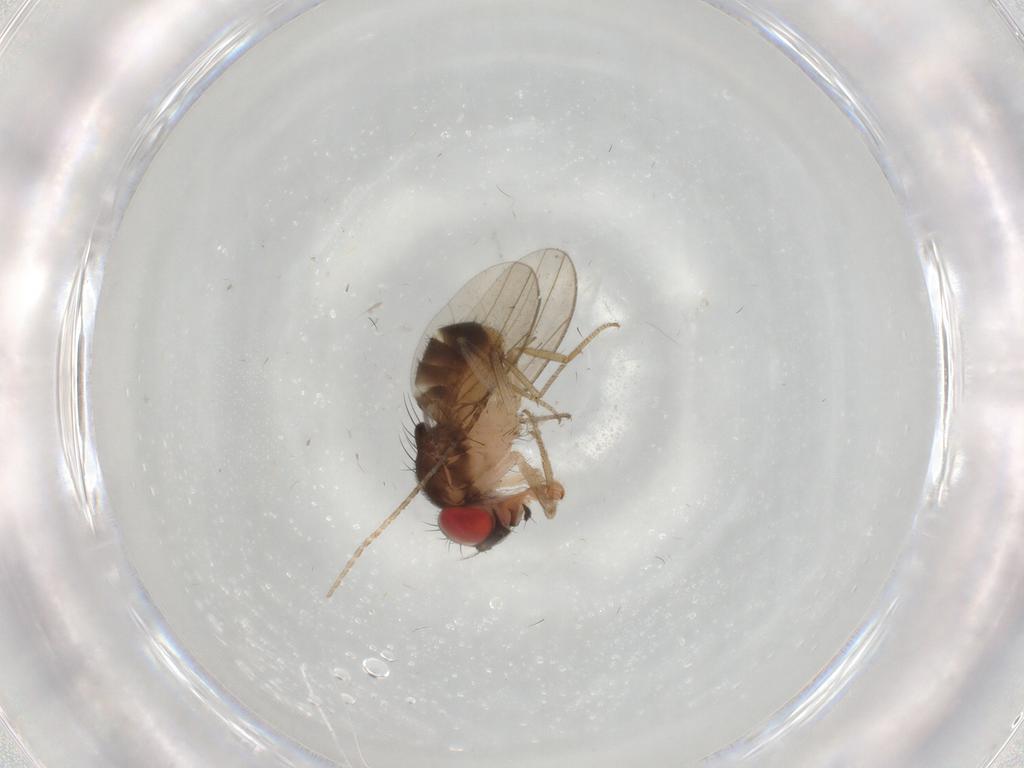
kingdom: Animalia
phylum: Arthropoda
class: Insecta
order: Diptera
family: Drosophilidae
